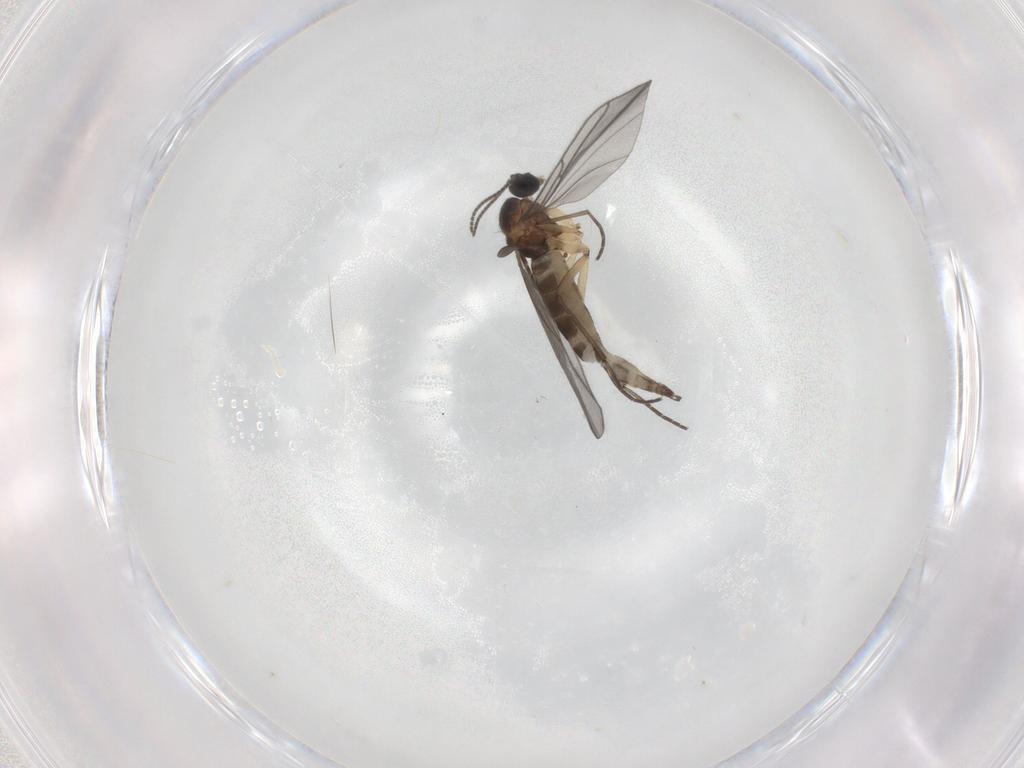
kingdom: Animalia
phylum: Arthropoda
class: Insecta
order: Diptera
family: Sciaridae
